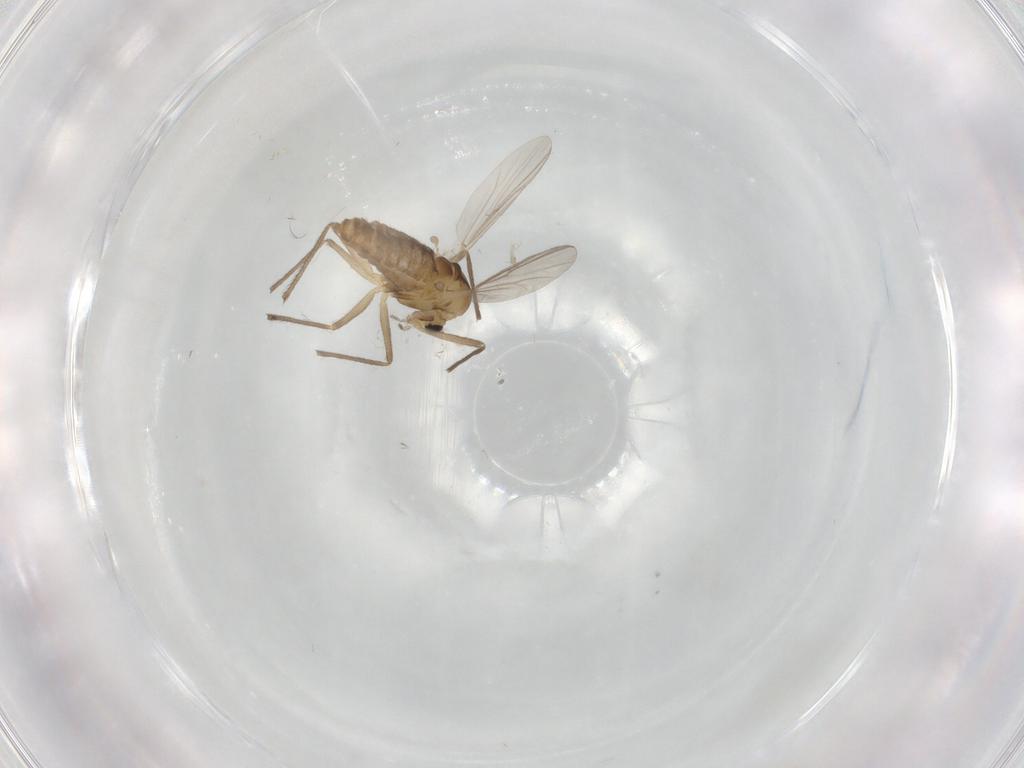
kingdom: Animalia
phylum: Arthropoda
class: Insecta
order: Diptera
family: Chironomidae
